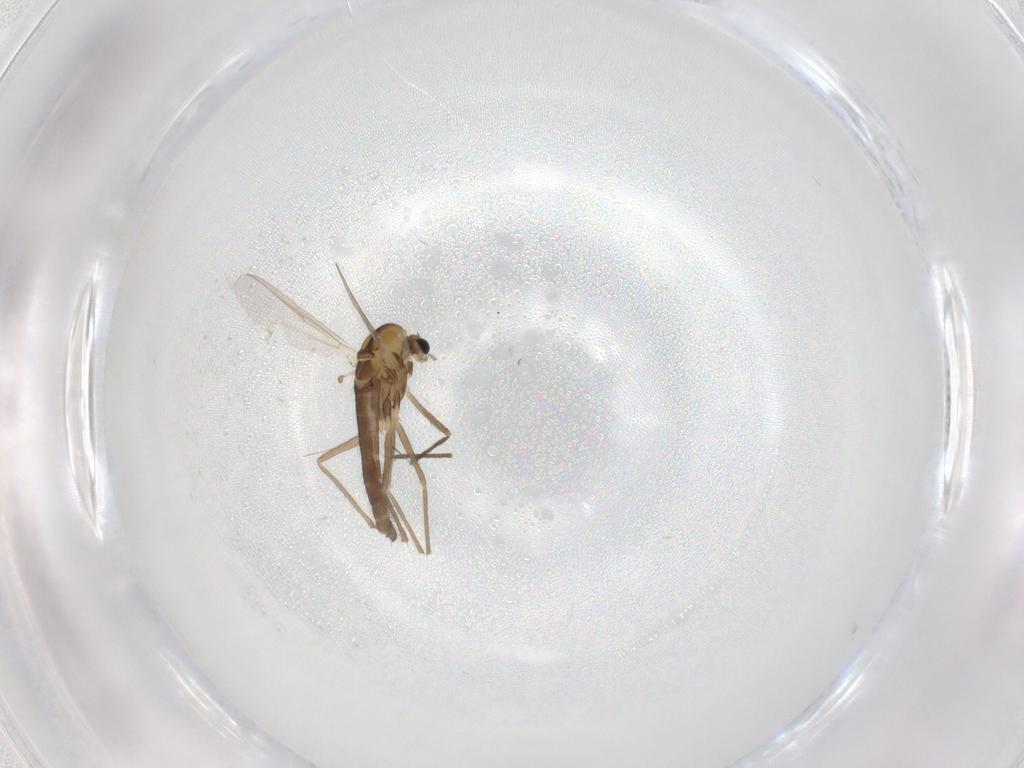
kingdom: Animalia
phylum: Arthropoda
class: Insecta
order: Diptera
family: Chironomidae
